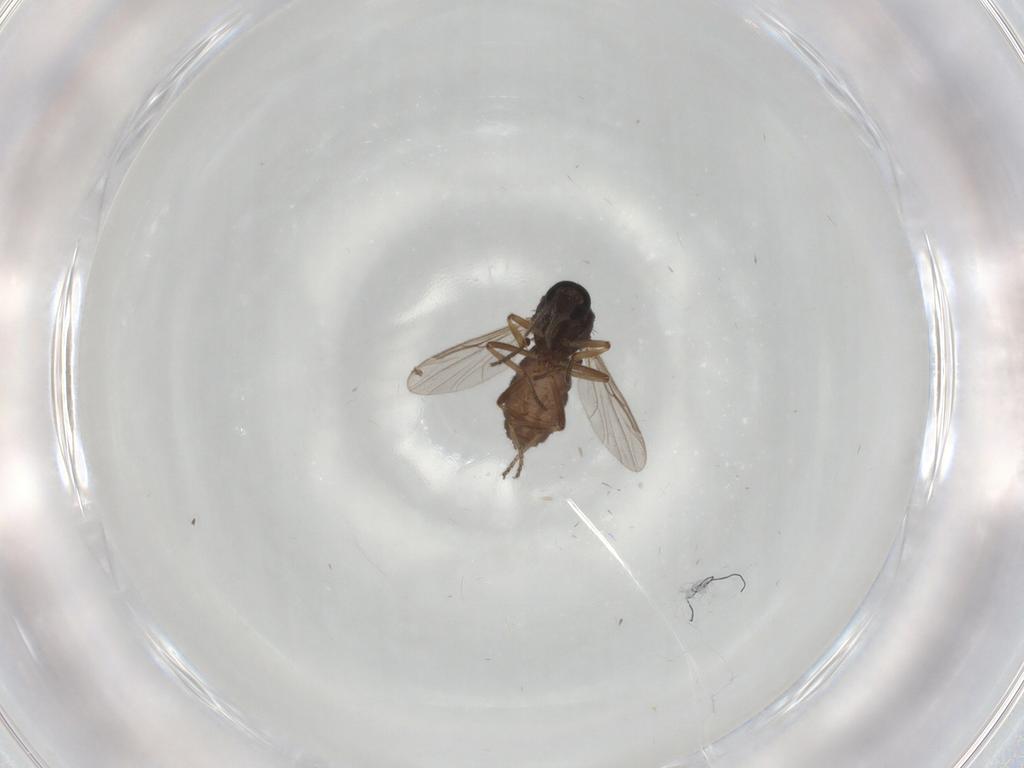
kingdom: Animalia
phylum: Arthropoda
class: Insecta
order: Diptera
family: Ceratopogonidae
